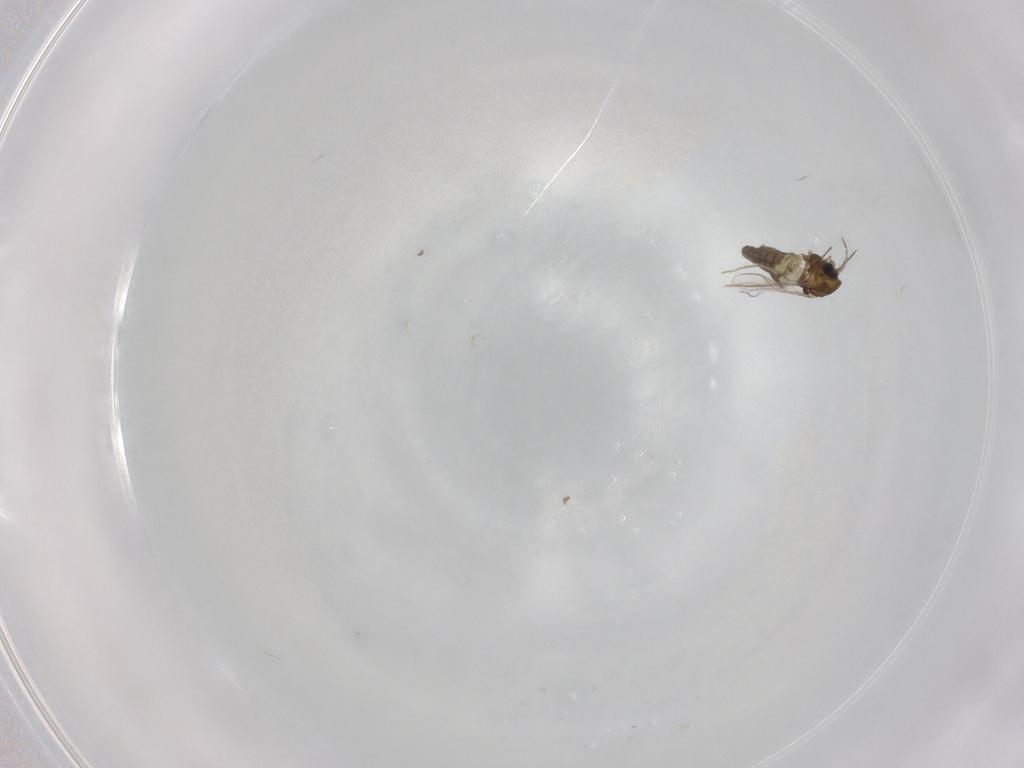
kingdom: Animalia
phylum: Arthropoda
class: Insecta
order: Diptera
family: Chironomidae
